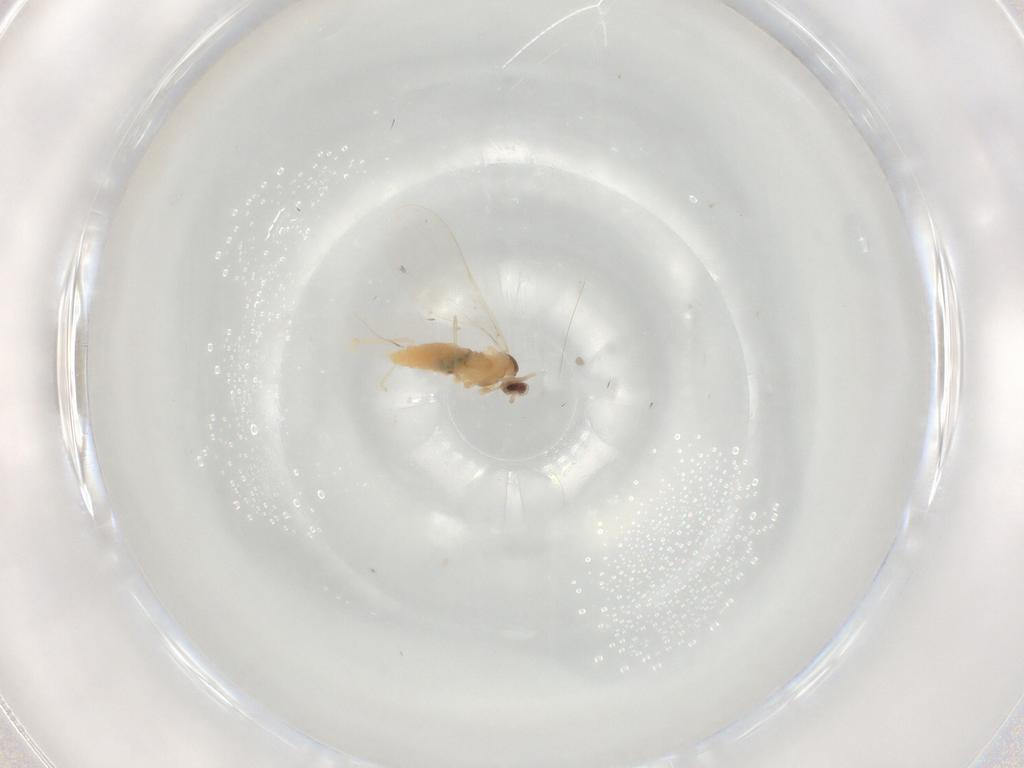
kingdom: Animalia
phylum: Arthropoda
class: Insecta
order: Diptera
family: Cecidomyiidae
